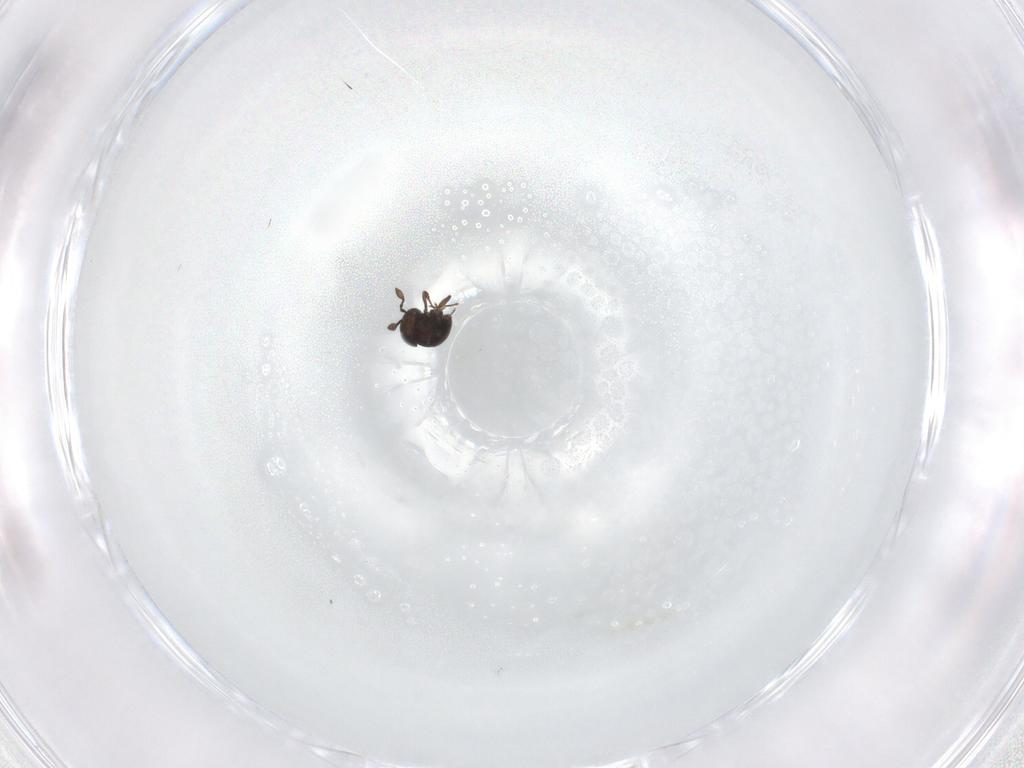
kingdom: Animalia
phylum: Arthropoda
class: Insecta
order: Hymenoptera
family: Scelionidae
